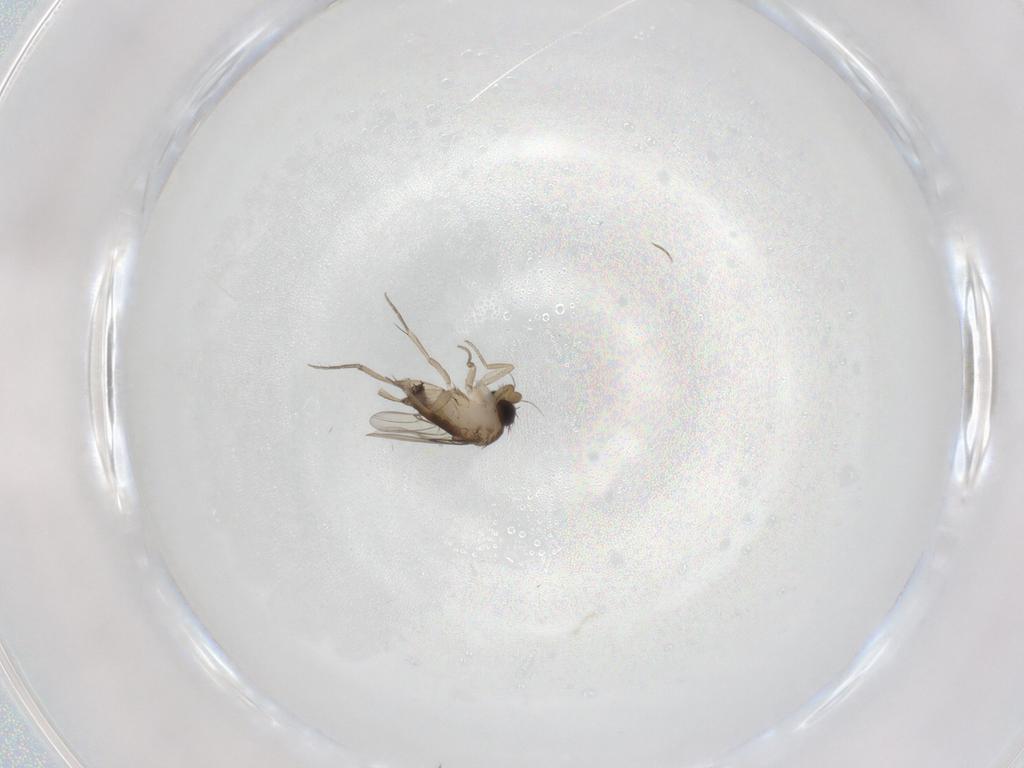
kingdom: Animalia
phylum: Arthropoda
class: Insecta
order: Diptera
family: Phoridae
